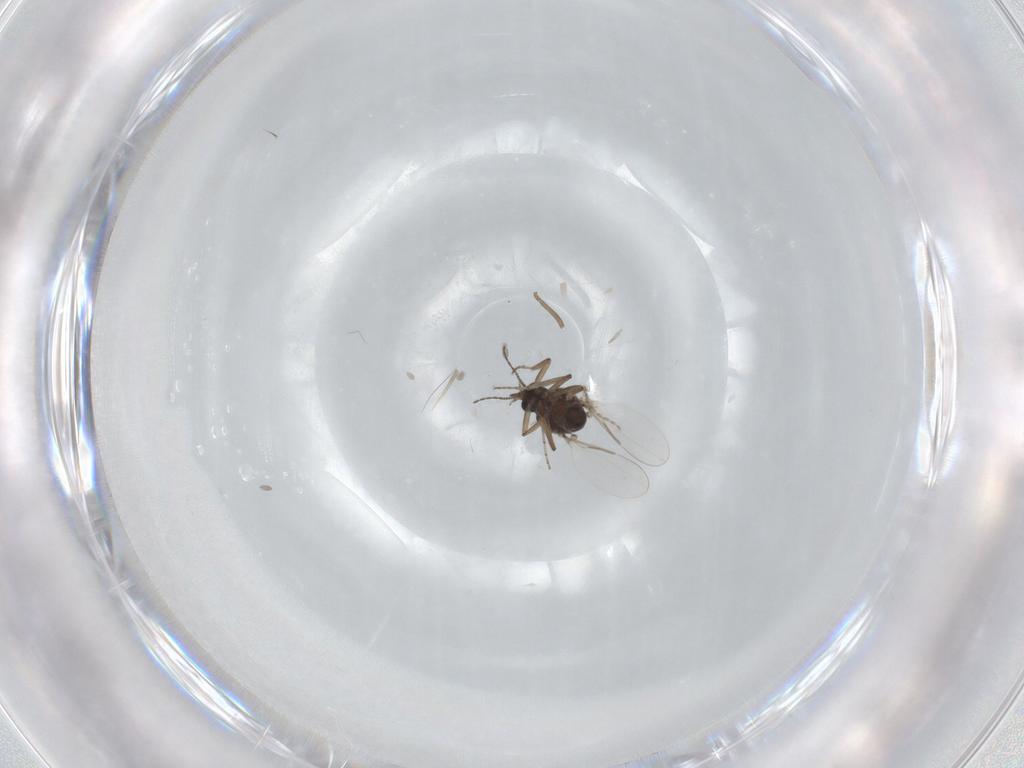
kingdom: Animalia
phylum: Arthropoda
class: Insecta
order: Diptera
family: Ceratopogonidae
